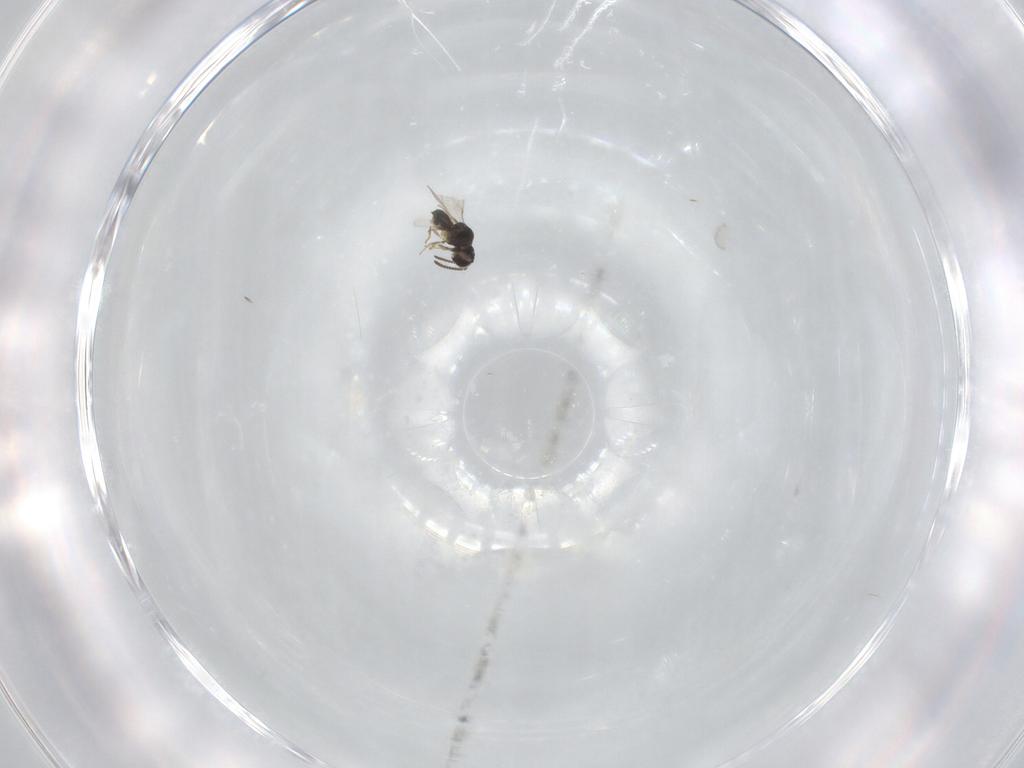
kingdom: Animalia
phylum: Arthropoda
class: Insecta
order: Hymenoptera
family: Scelionidae
